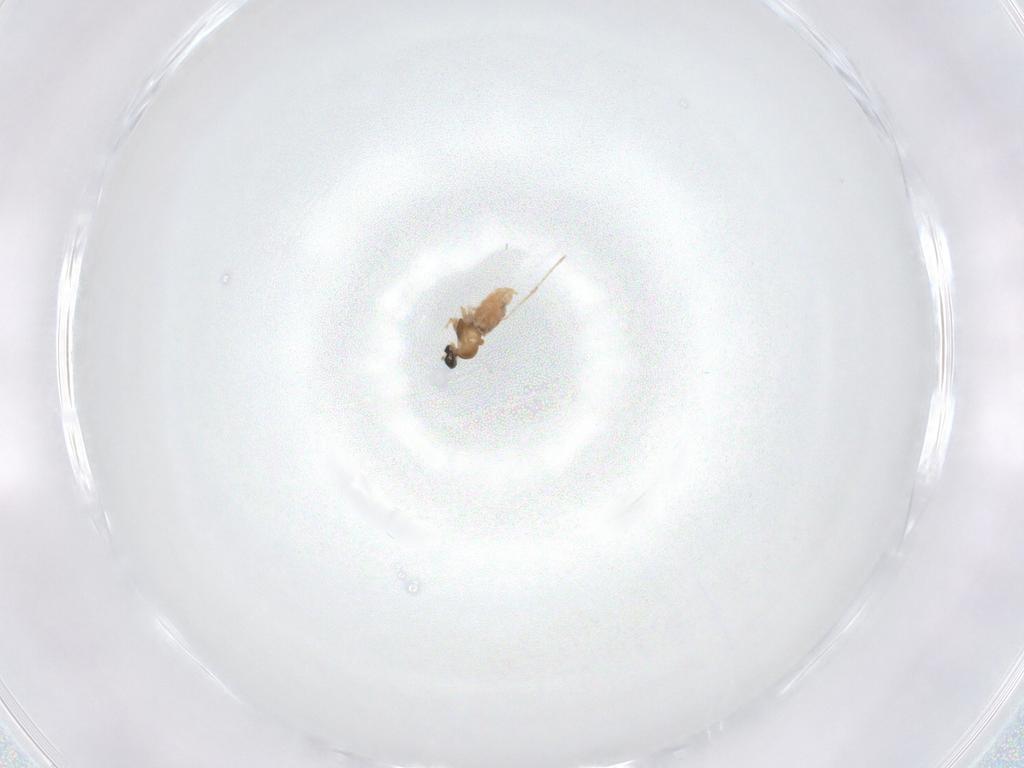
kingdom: Animalia
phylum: Arthropoda
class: Insecta
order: Diptera
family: Cecidomyiidae
